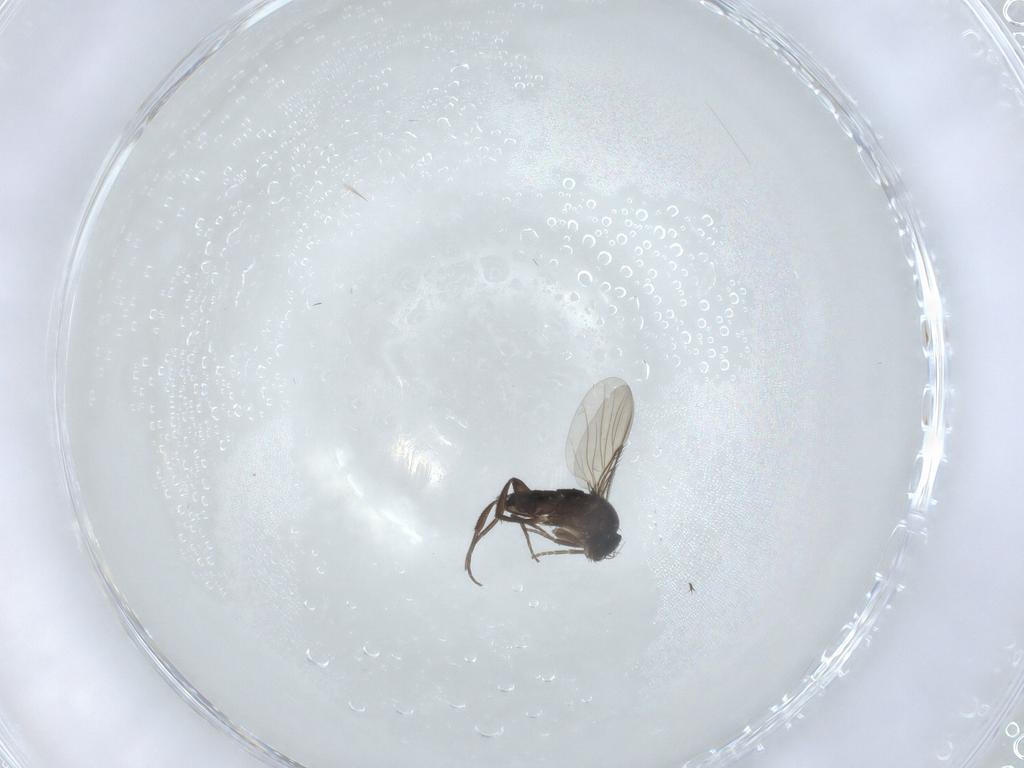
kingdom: Animalia
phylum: Arthropoda
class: Insecta
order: Diptera
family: Phoridae
